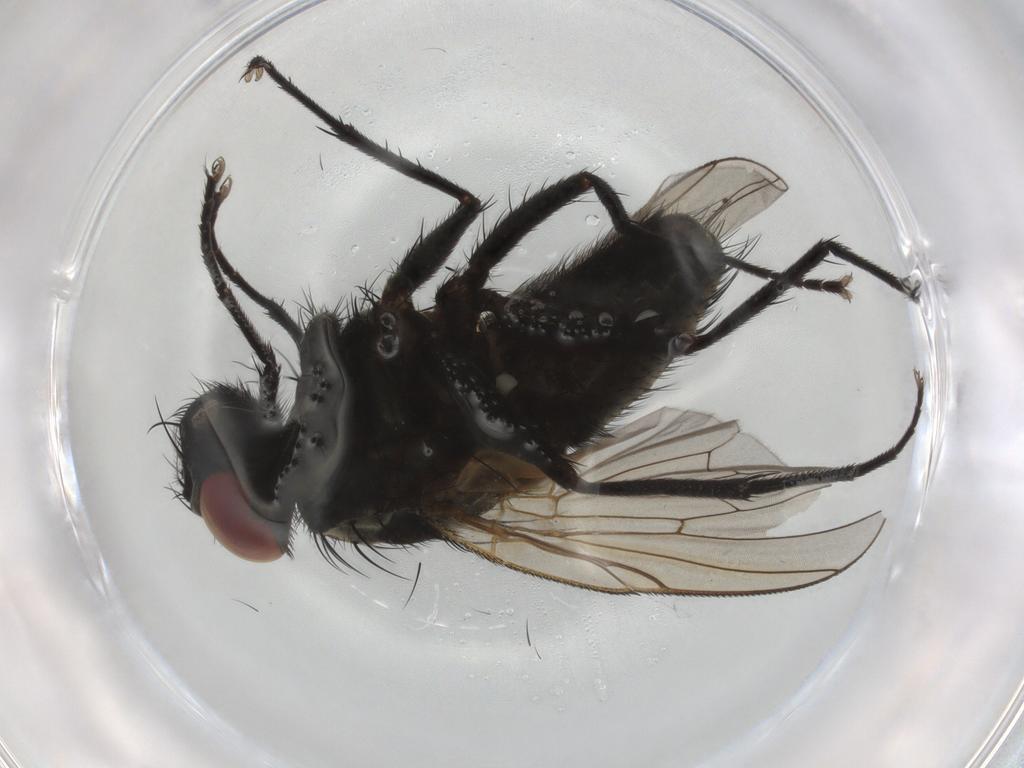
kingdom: Animalia
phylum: Arthropoda
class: Insecta
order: Diptera
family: Muscidae
